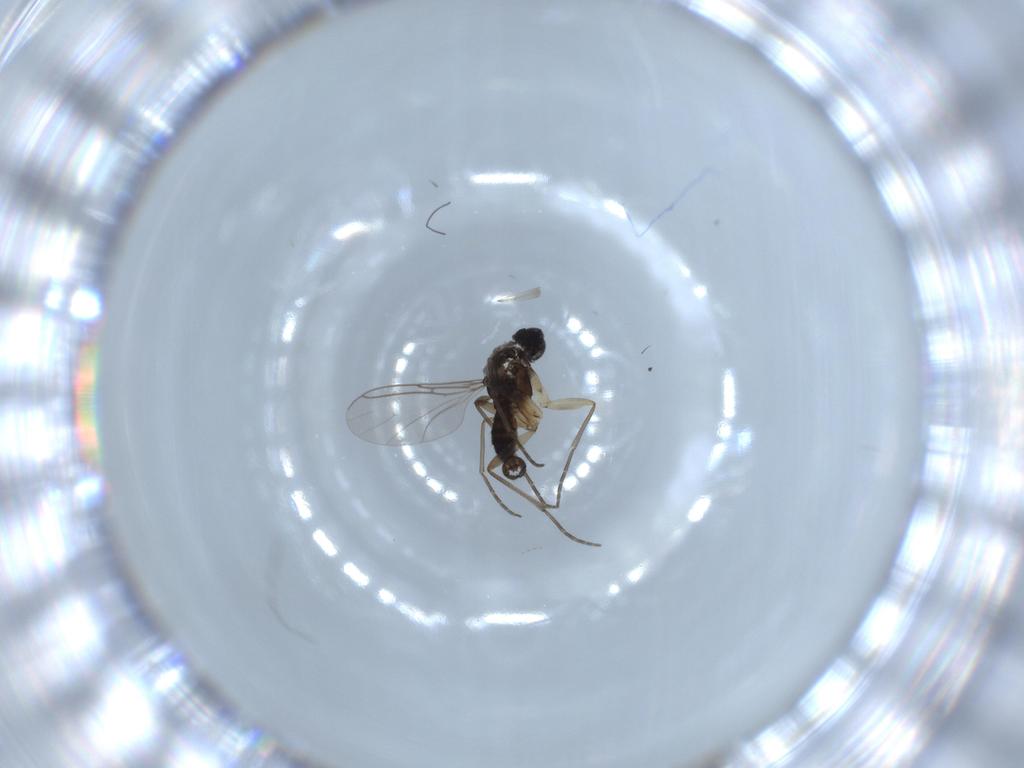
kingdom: Animalia
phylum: Arthropoda
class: Insecta
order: Diptera
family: Sciaridae
